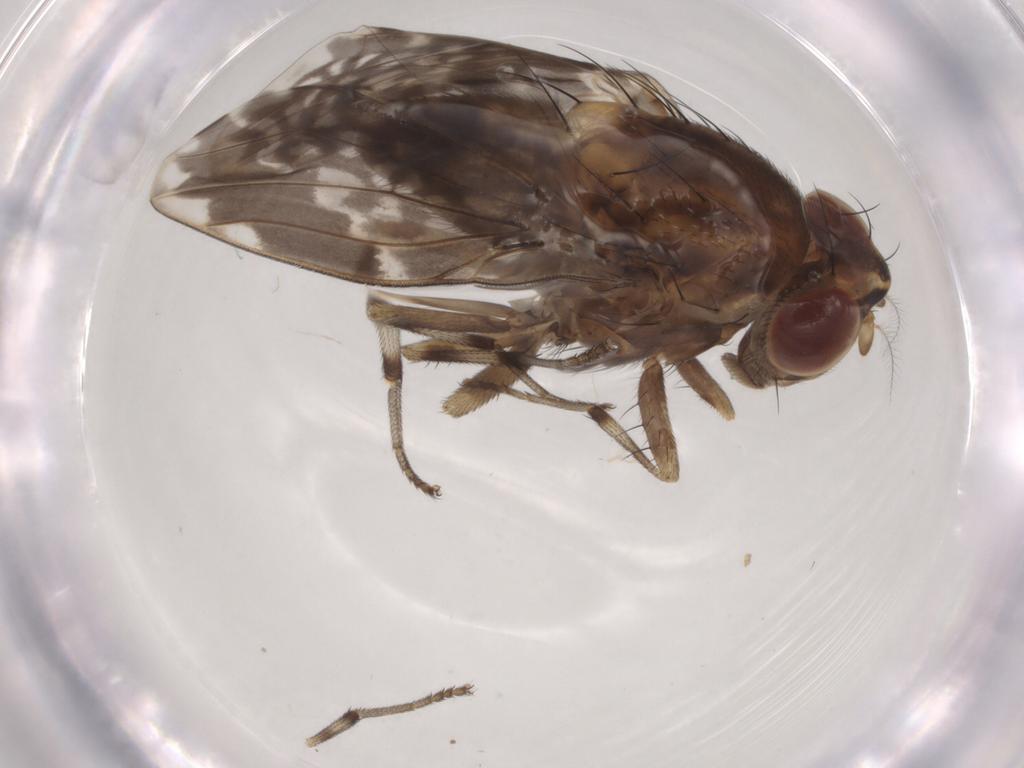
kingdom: Animalia
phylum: Arthropoda
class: Insecta
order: Diptera
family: Lauxaniidae
